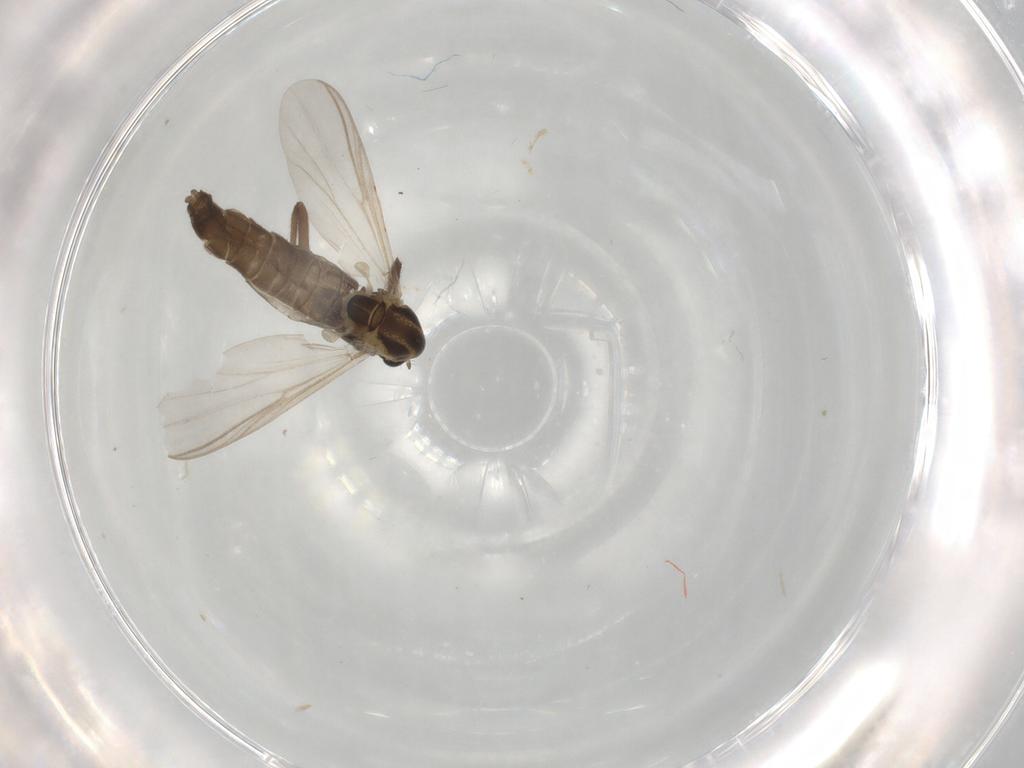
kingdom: Animalia
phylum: Arthropoda
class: Insecta
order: Diptera
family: Sciaridae
